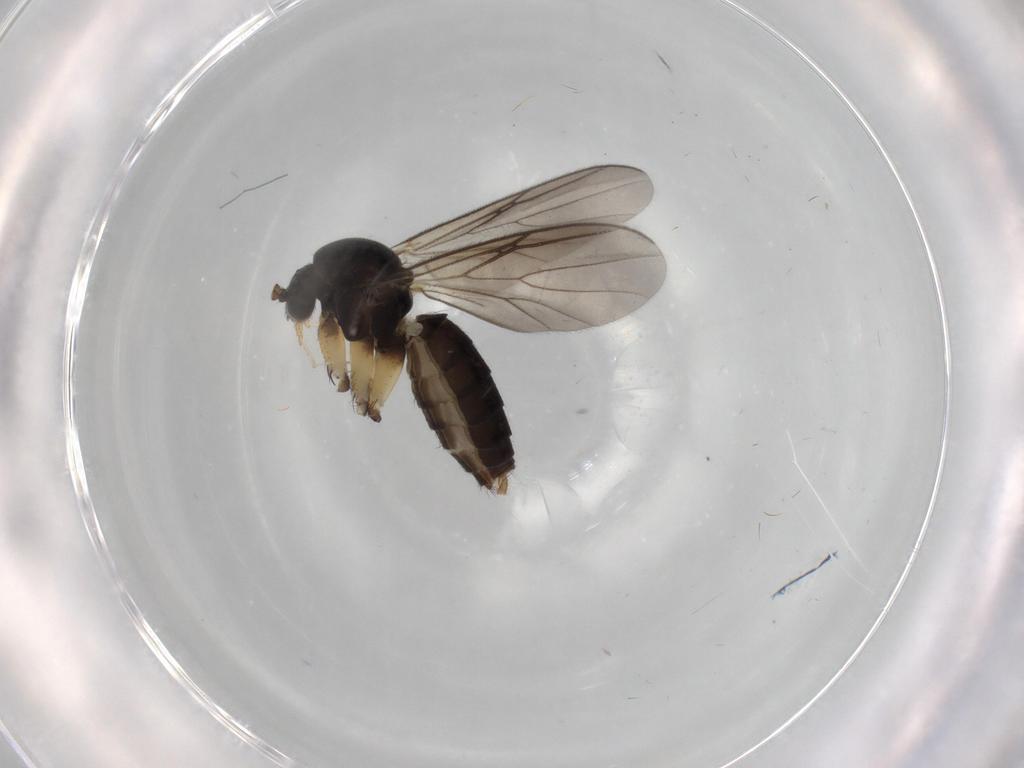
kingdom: Animalia
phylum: Arthropoda
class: Insecta
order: Diptera
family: Mycetophilidae
